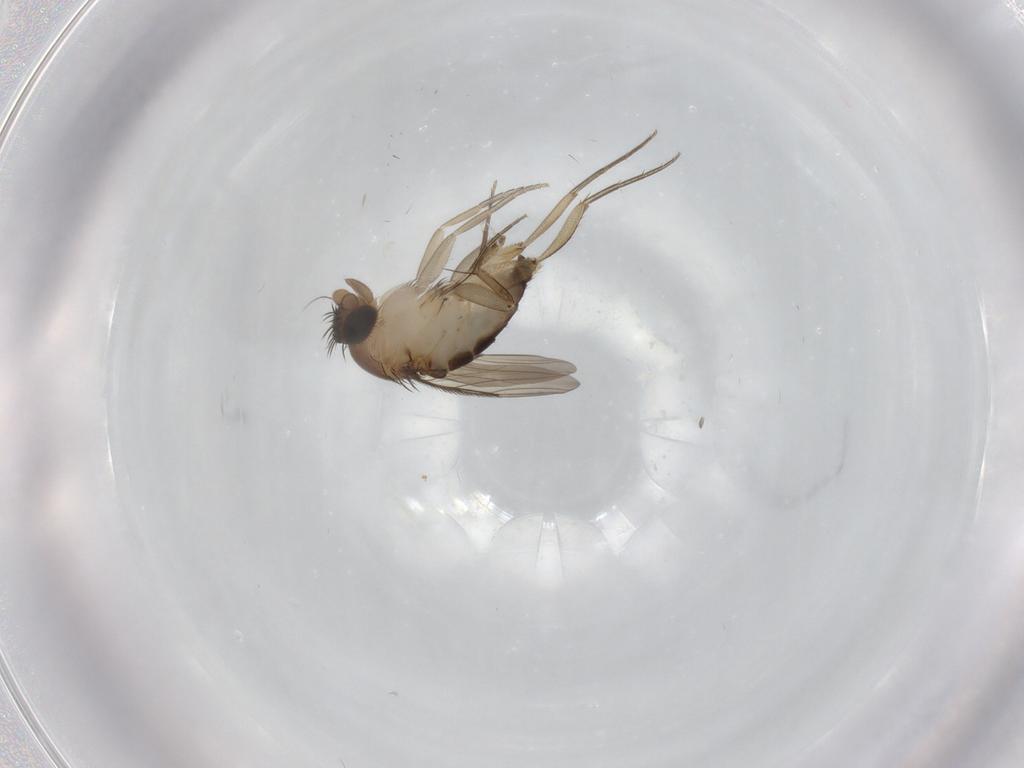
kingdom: Animalia
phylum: Arthropoda
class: Insecta
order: Diptera
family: Phoridae
